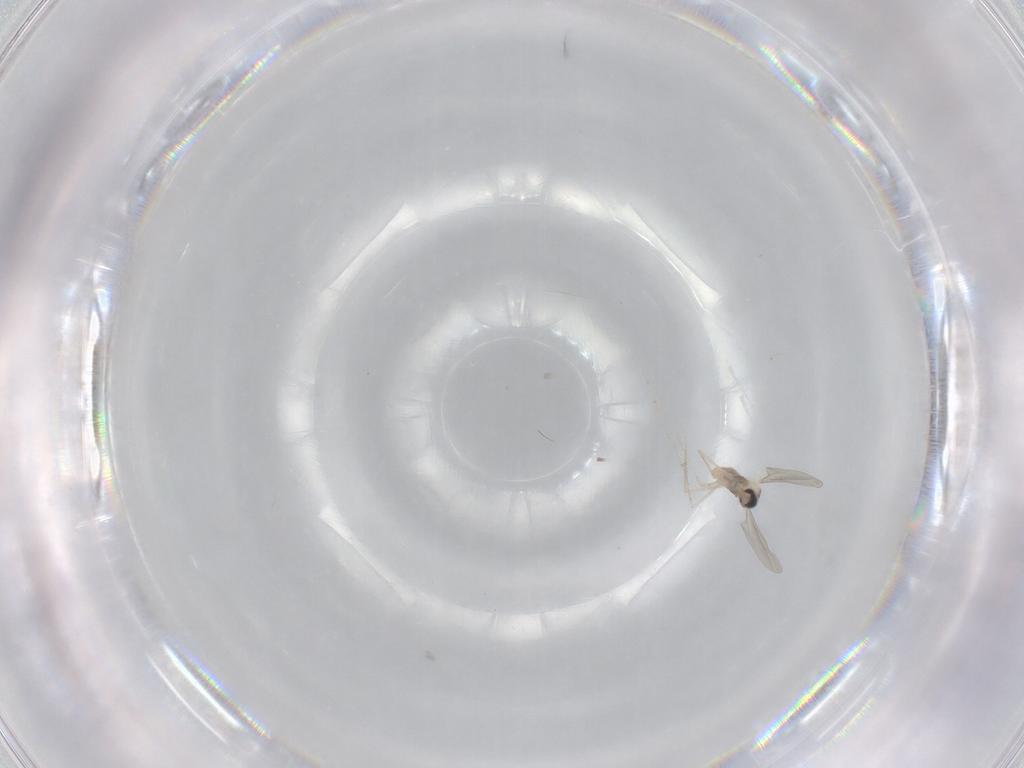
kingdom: Animalia
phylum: Arthropoda
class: Insecta
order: Diptera
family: Cecidomyiidae
